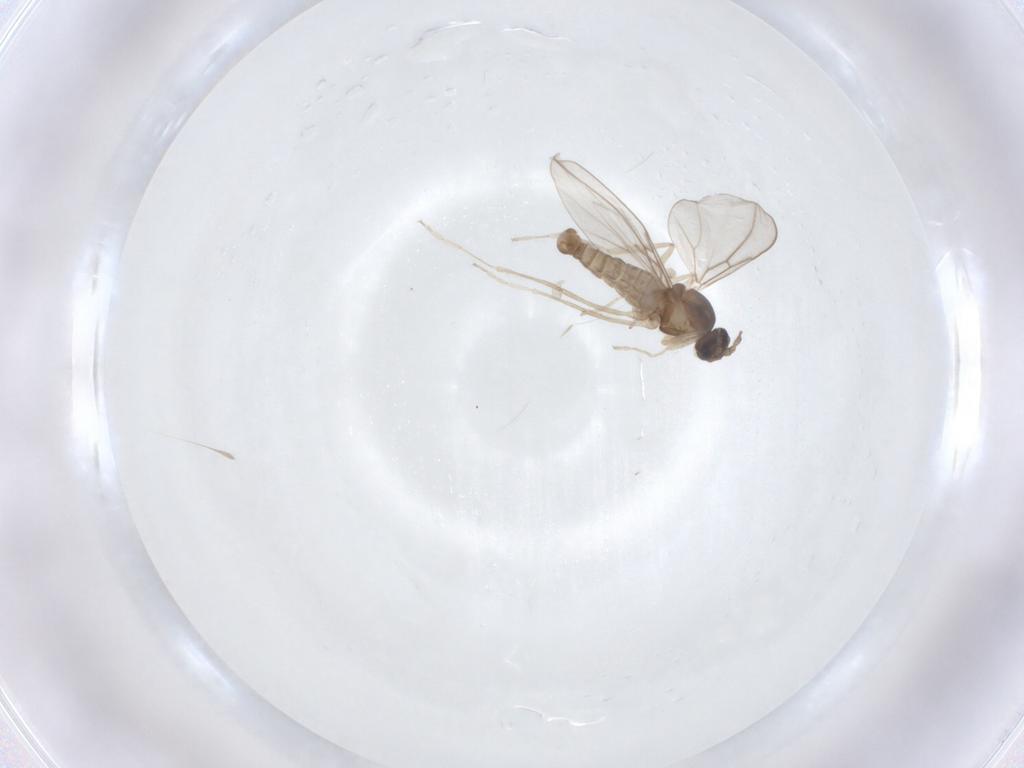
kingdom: Animalia
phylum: Arthropoda
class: Insecta
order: Diptera
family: Cecidomyiidae
